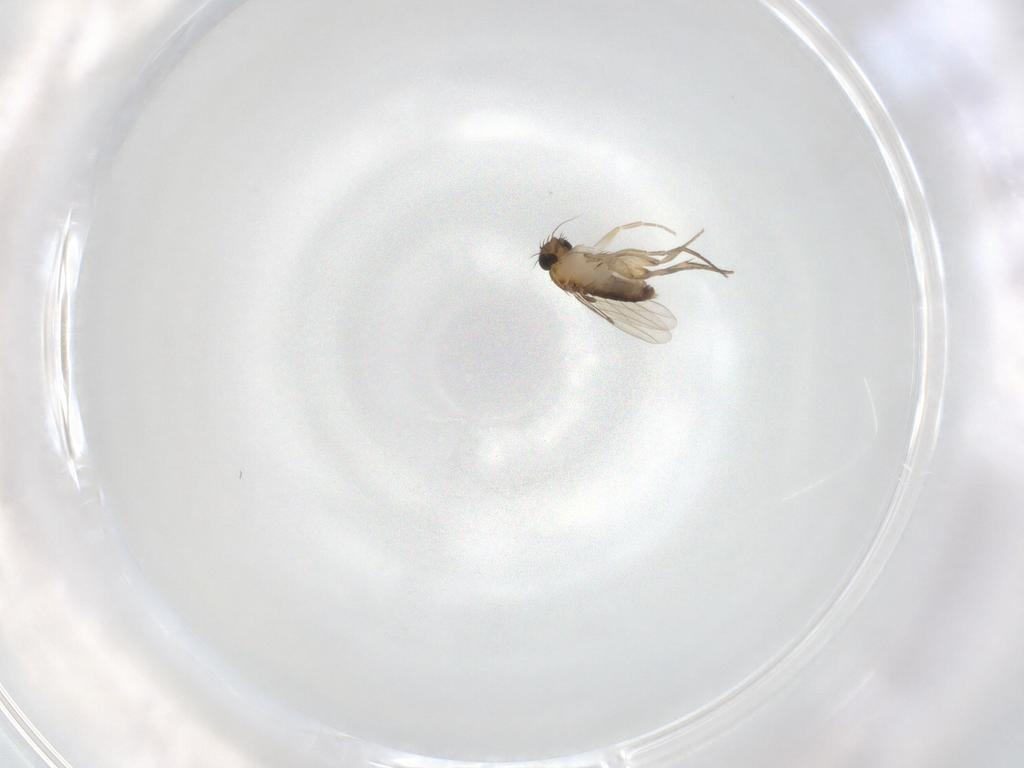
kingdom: Animalia
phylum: Arthropoda
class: Insecta
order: Diptera
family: Phoridae
